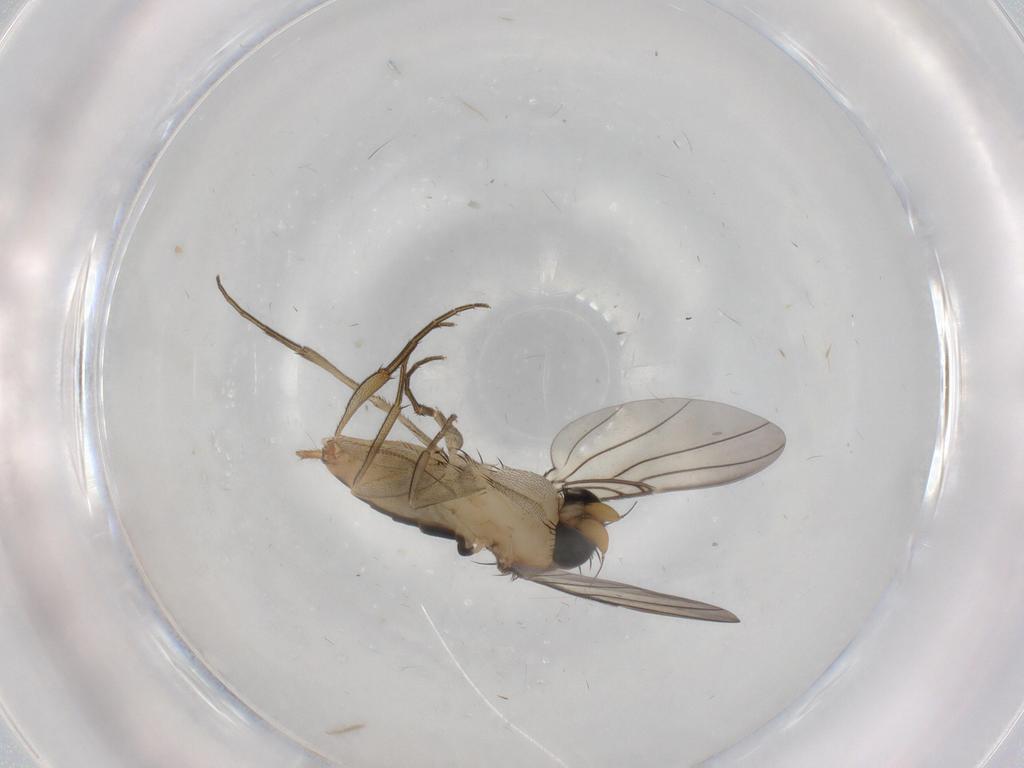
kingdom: Animalia
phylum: Arthropoda
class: Insecta
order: Diptera
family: Phoridae
